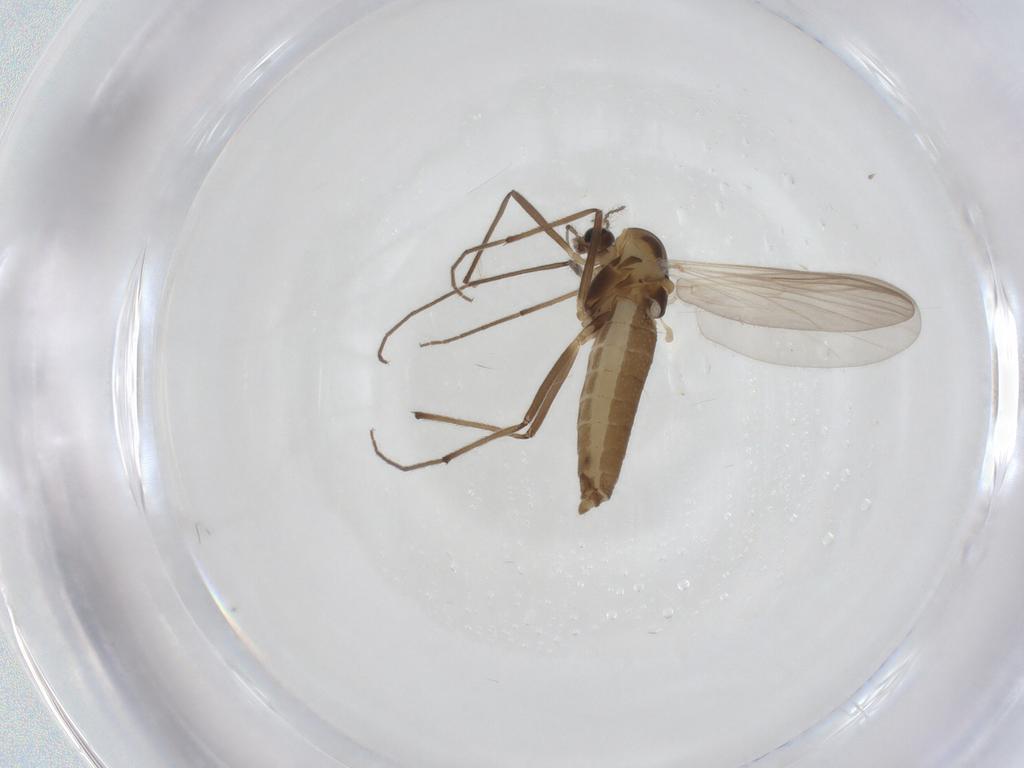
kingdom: Animalia
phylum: Arthropoda
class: Insecta
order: Diptera
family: Chironomidae
